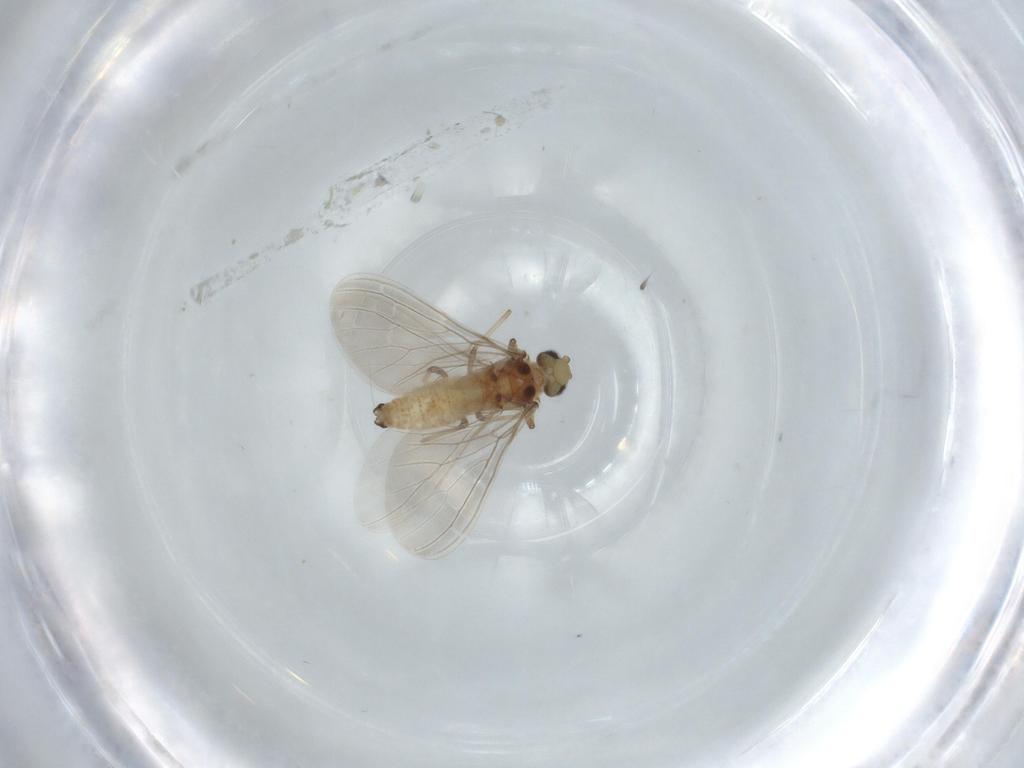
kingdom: Animalia
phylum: Arthropoda
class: Insecta
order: Neuroptera
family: Coniopterygidae
